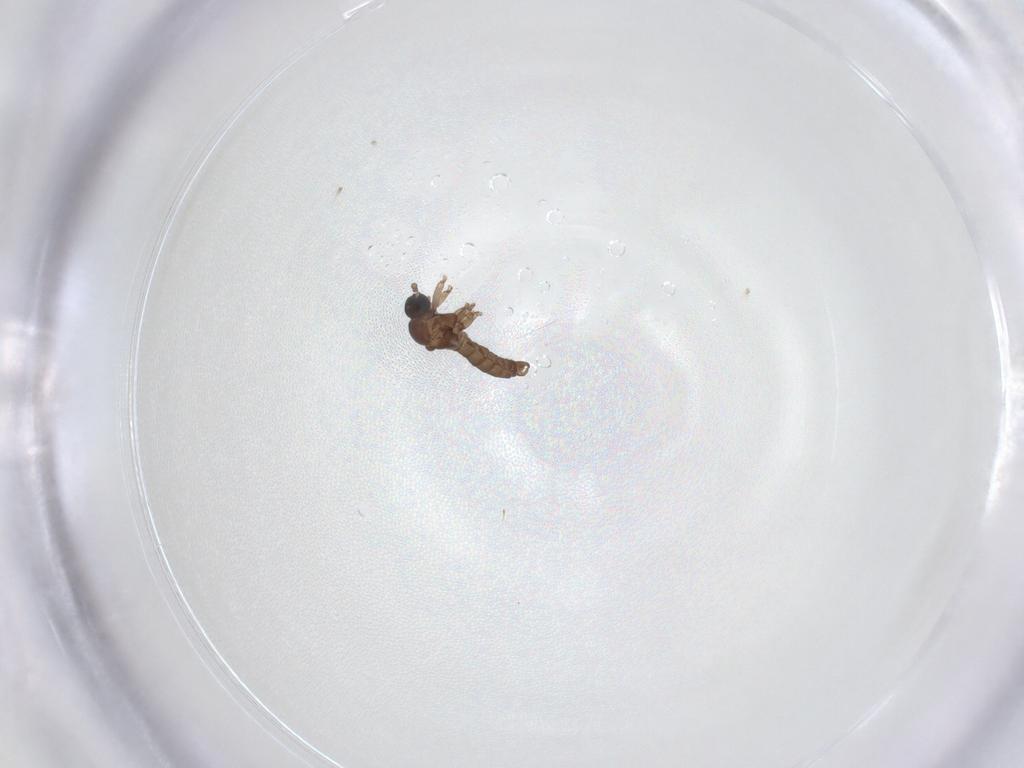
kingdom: Animalia
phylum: Arthropoda
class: Insecta
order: Diptera
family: Sciaridae
